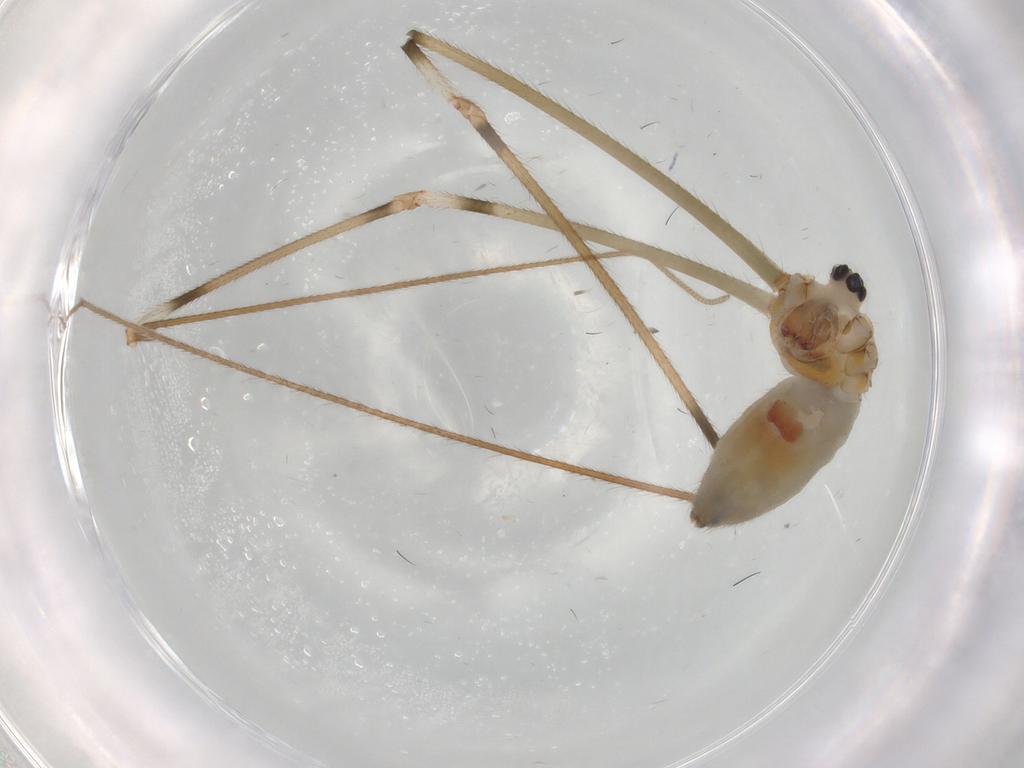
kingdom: Animalia
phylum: Arthropoda
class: Arachnida
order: Araneae
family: Pholcidae
